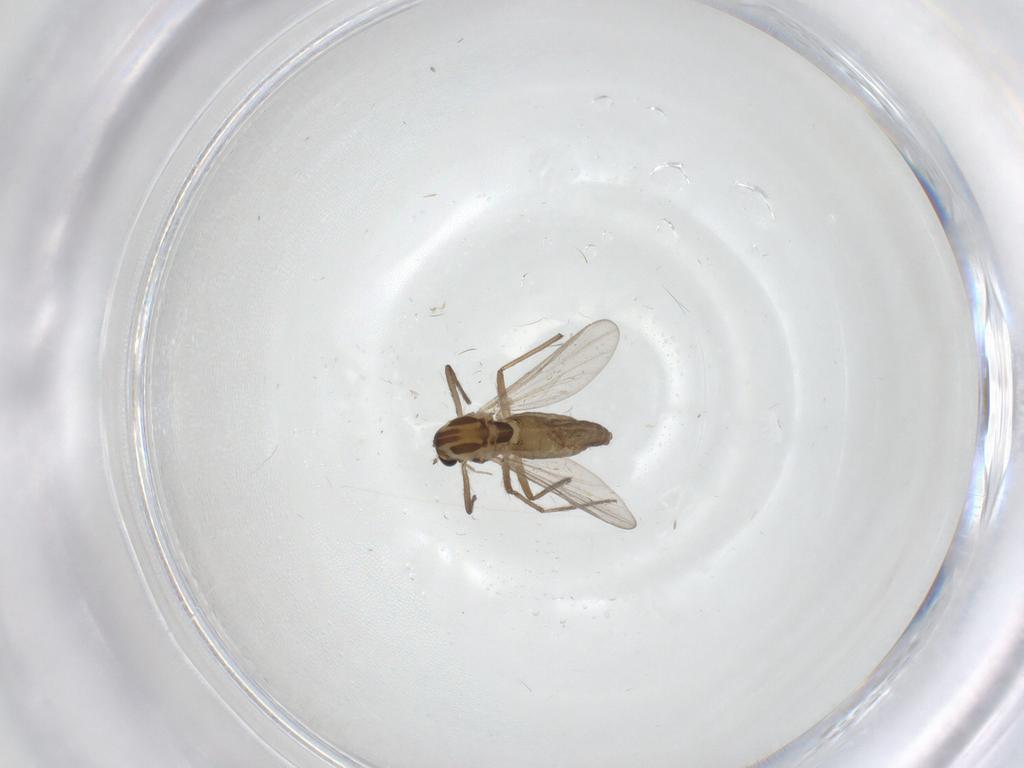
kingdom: Animalia
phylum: Arthropoda
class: Insecta
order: Diptera
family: Chironomidae
